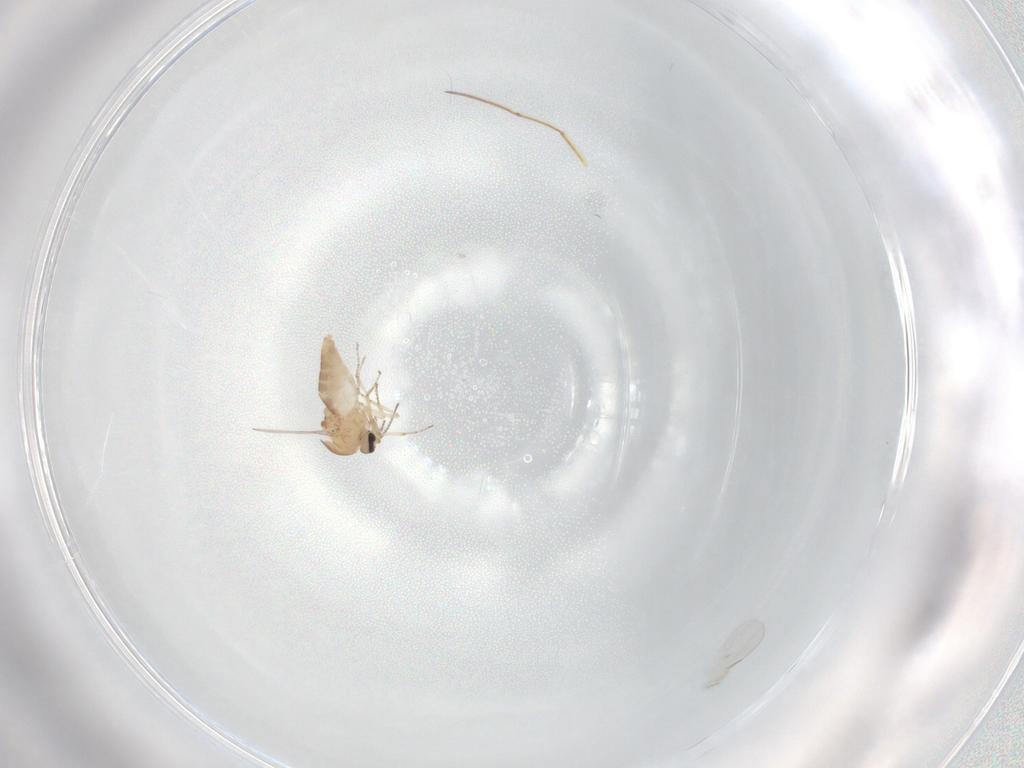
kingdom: Animalia
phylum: Arthropoda
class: Insecta
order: Diptera
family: Ceratopogonidae
